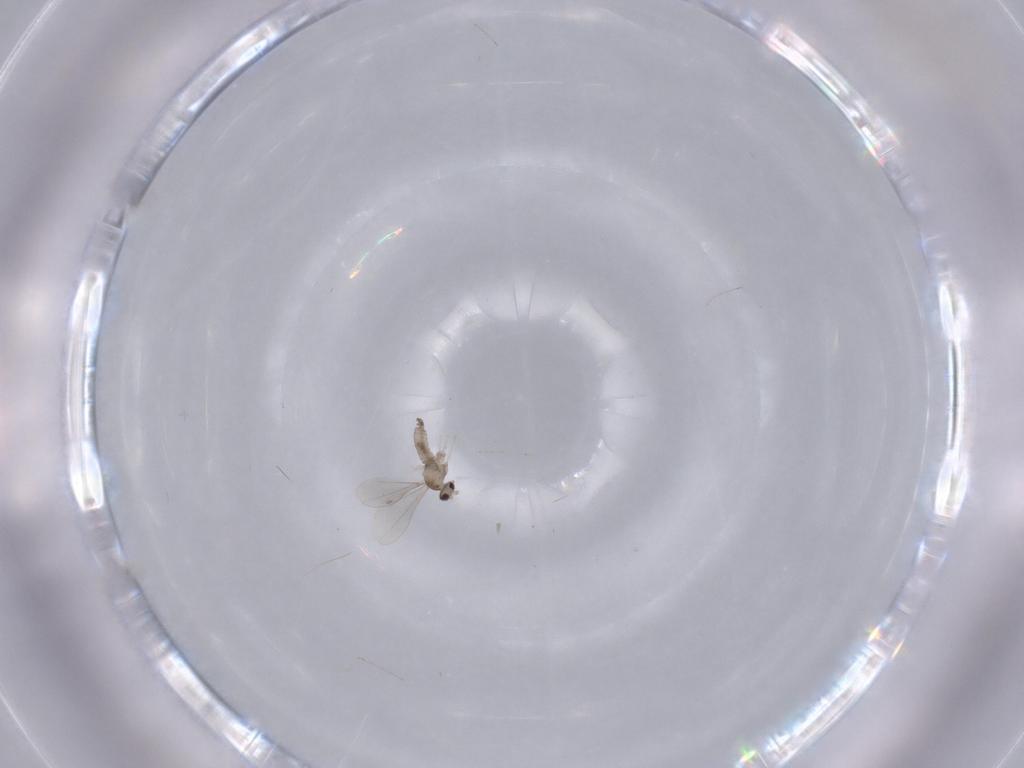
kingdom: Animalia
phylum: Arthropoda
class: Insecta
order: Diptera
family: Cecidomyiidae
